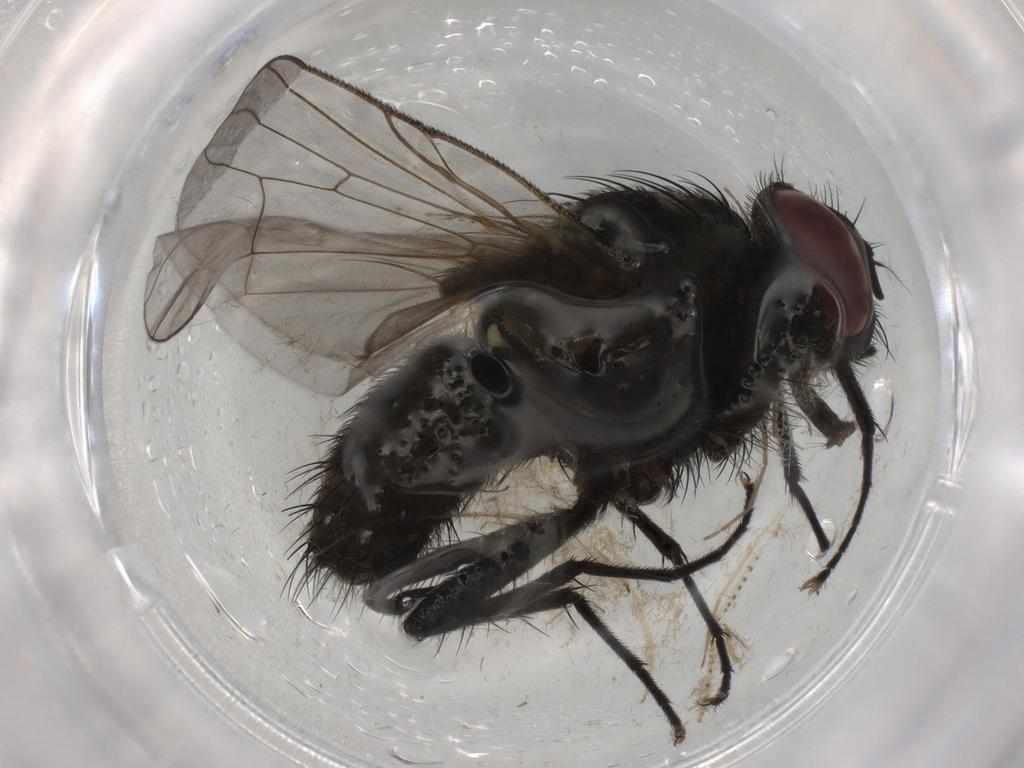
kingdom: Animalia
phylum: Arthropoda
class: Insecta
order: Diptera
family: Muscidae
